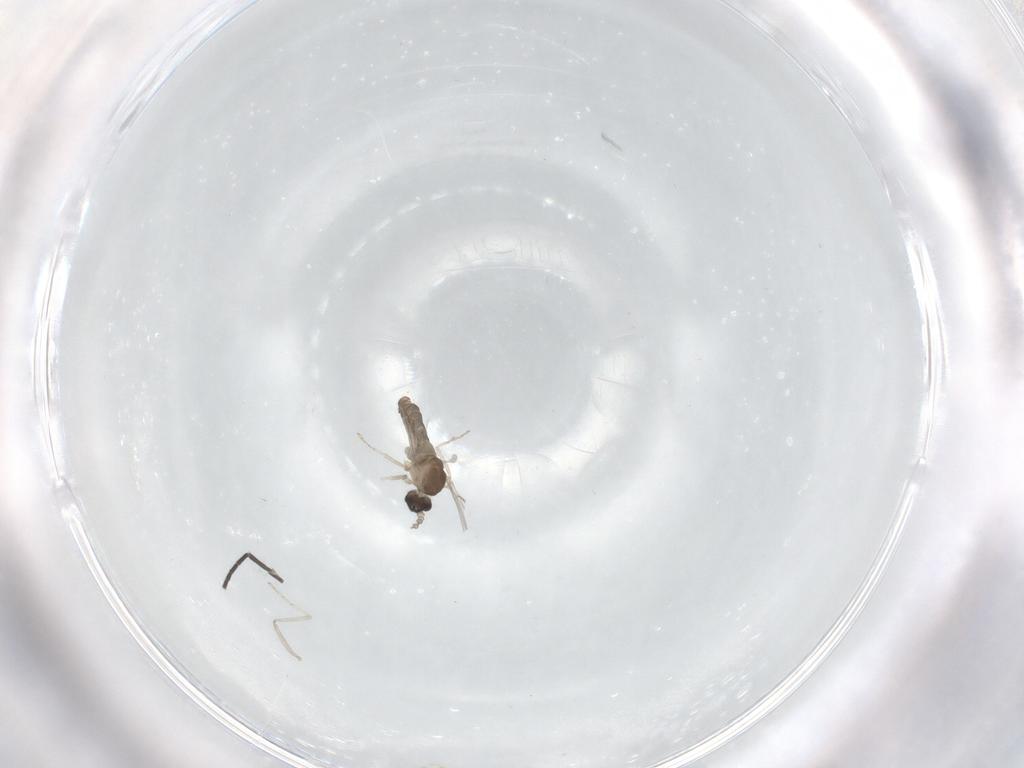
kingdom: Animalia
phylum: Arthropoda
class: Insecta
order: Diptera
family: Sciaridae
